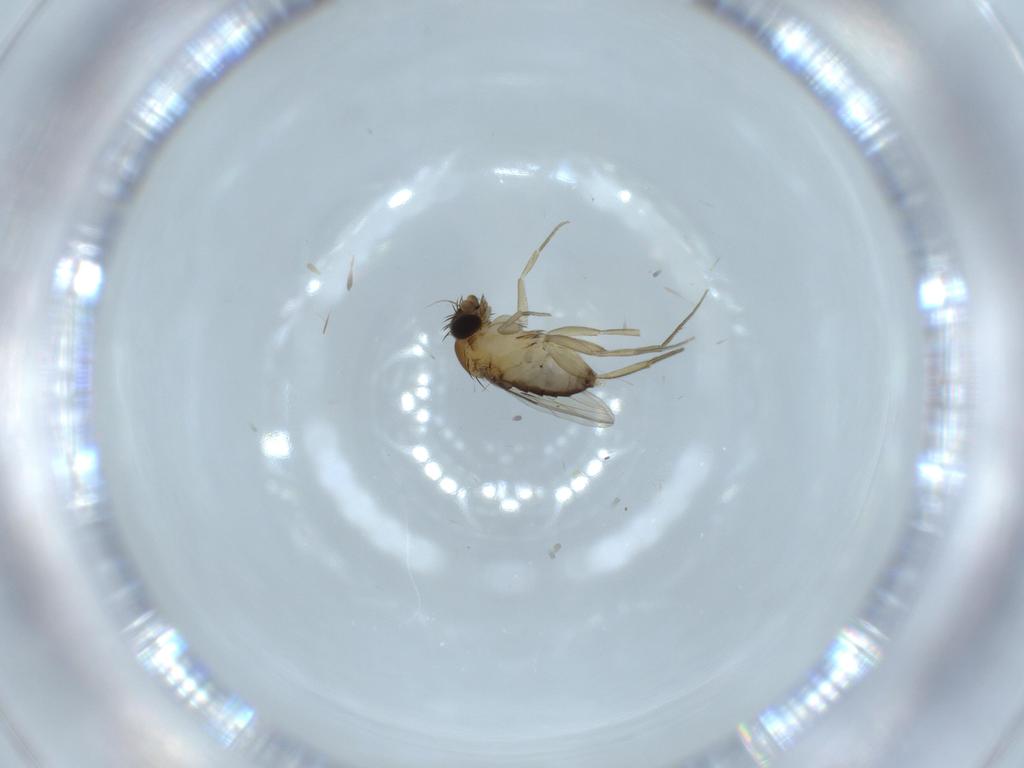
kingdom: Animalia
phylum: Arthropoda
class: Insecta
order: Diptera
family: Phoridae
